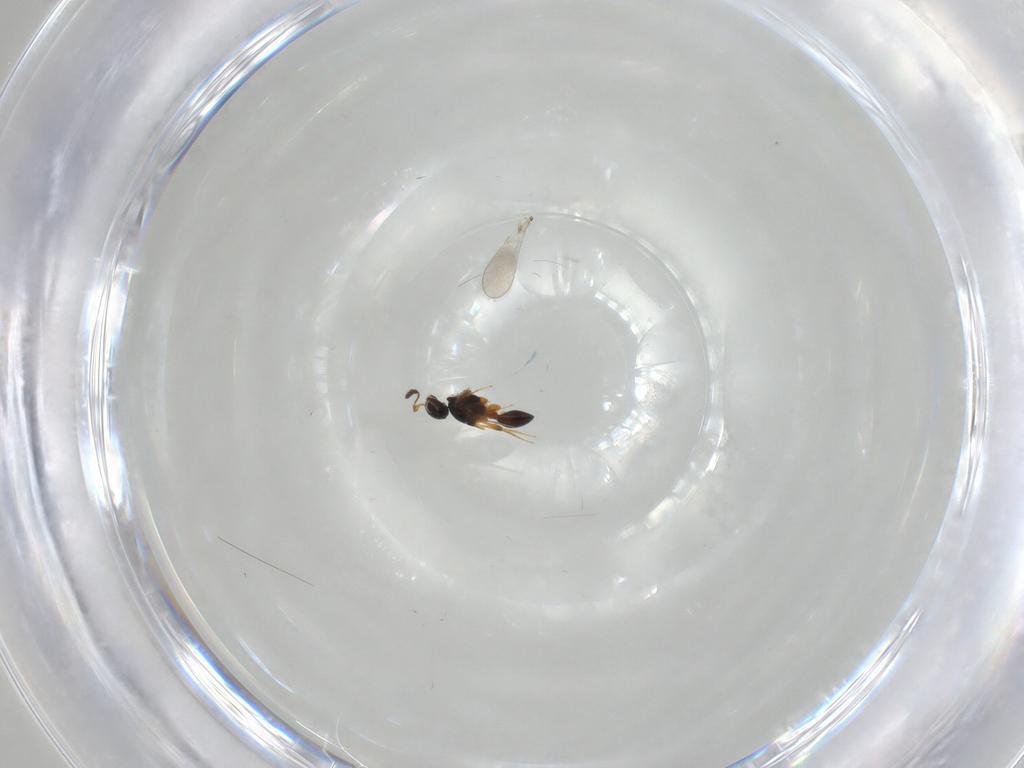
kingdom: Animalia
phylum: Arthropoda
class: Insecta
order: Hymenoptera
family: Platygastridae
